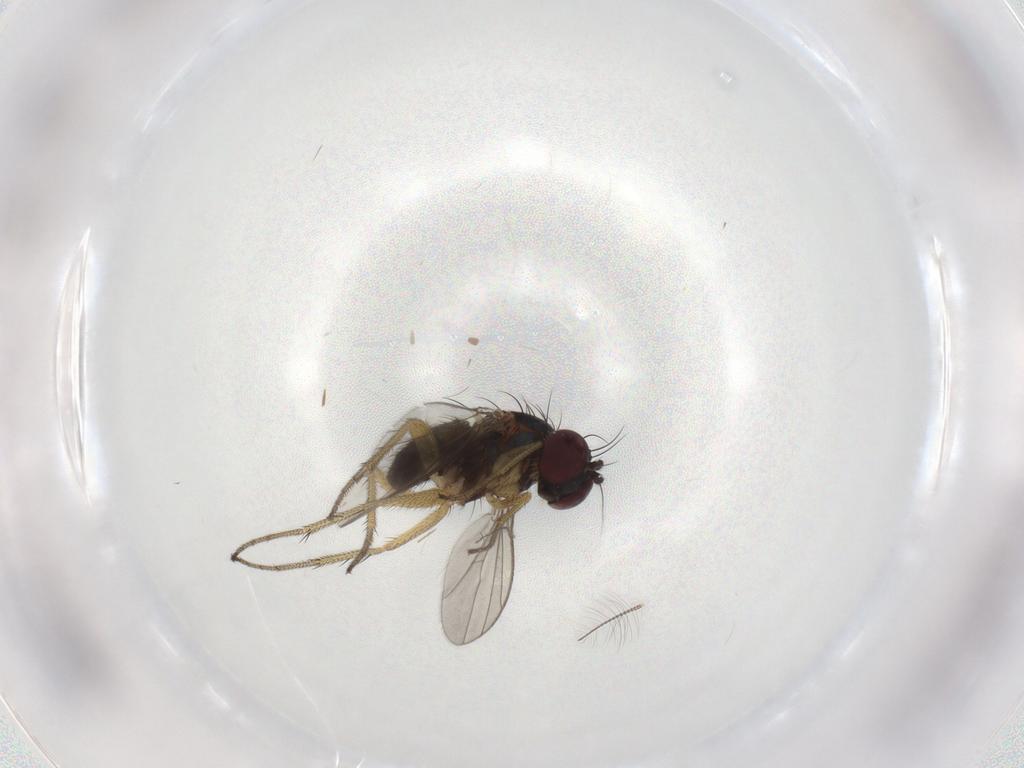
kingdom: Animalia
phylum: Arthropoda
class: Insecta
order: Diptera
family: Chironomidae
